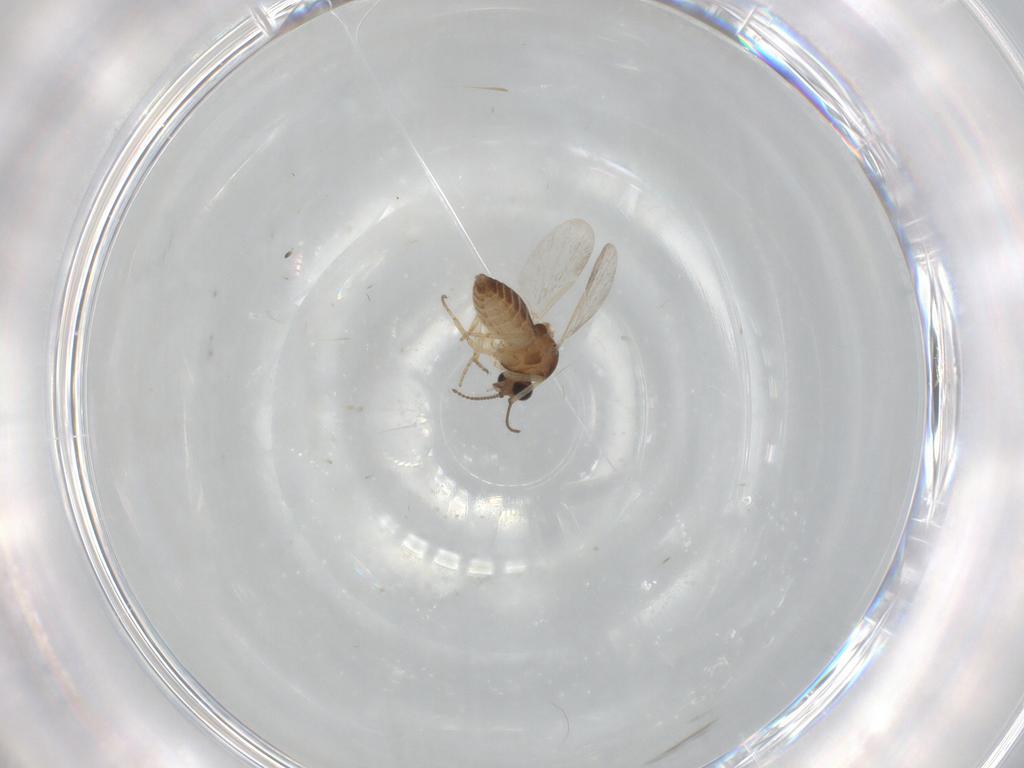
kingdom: Animalia
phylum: Arthropoda
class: Insecta
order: Diptera
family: Ceratopogonidae
